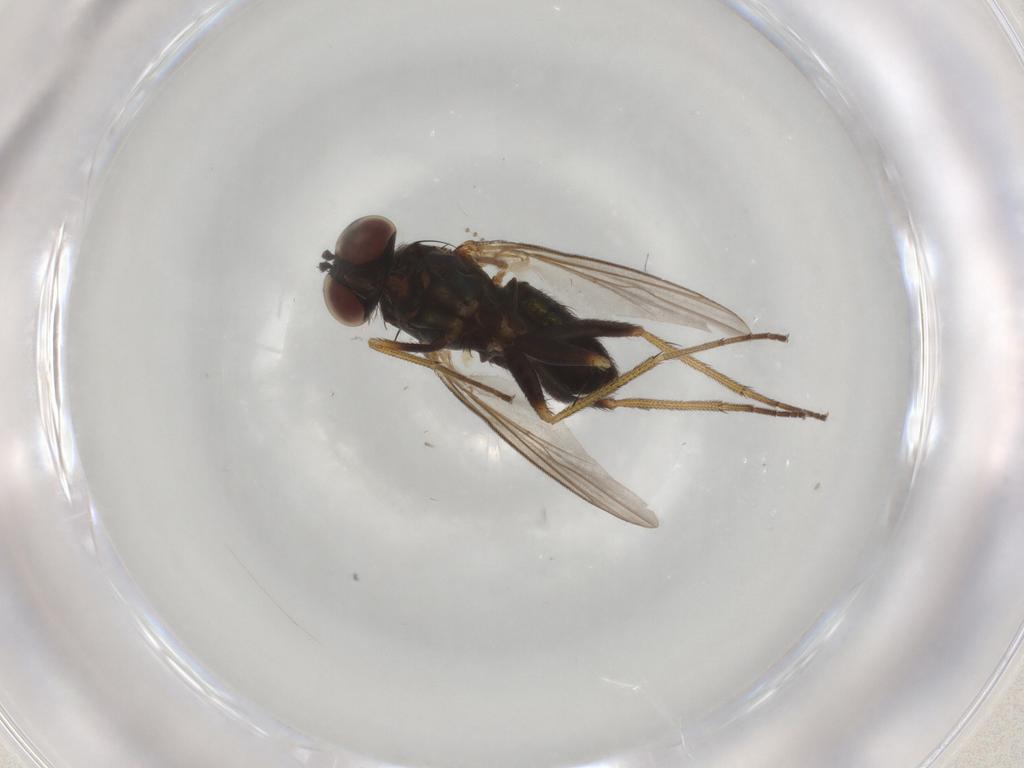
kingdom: Animalia
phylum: Arthropoda
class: Insecta
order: Diptera
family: Dolichopodidae
